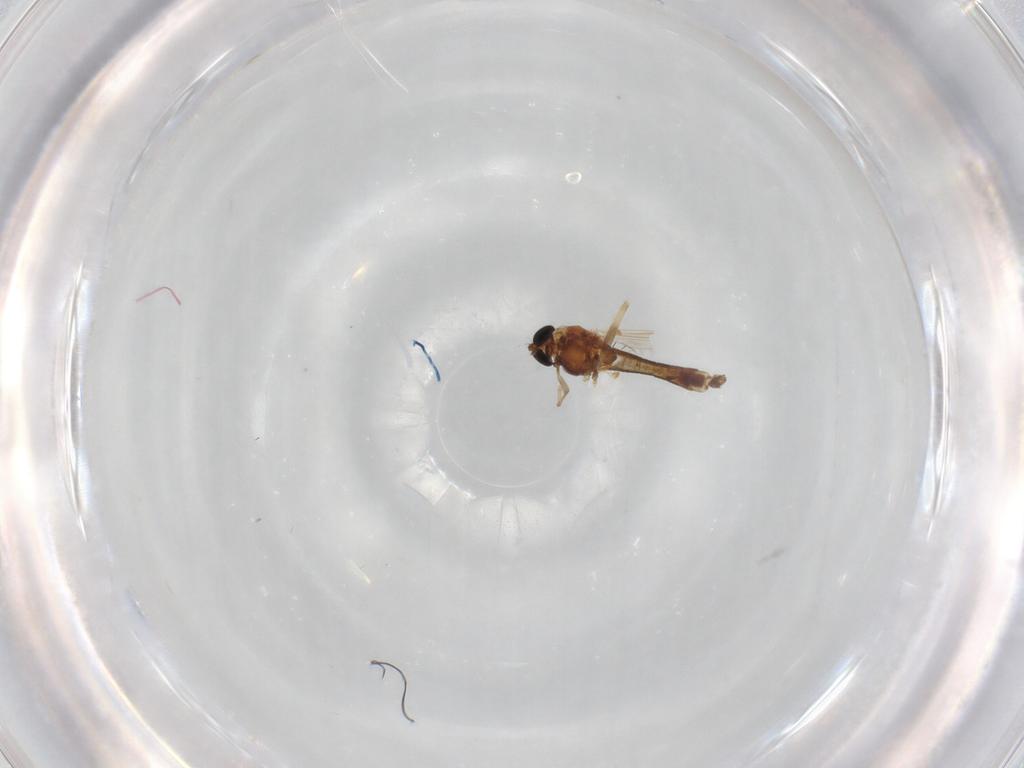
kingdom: Animalia
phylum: Arthropoda
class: Insecta
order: Diptera
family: Chironomidae
